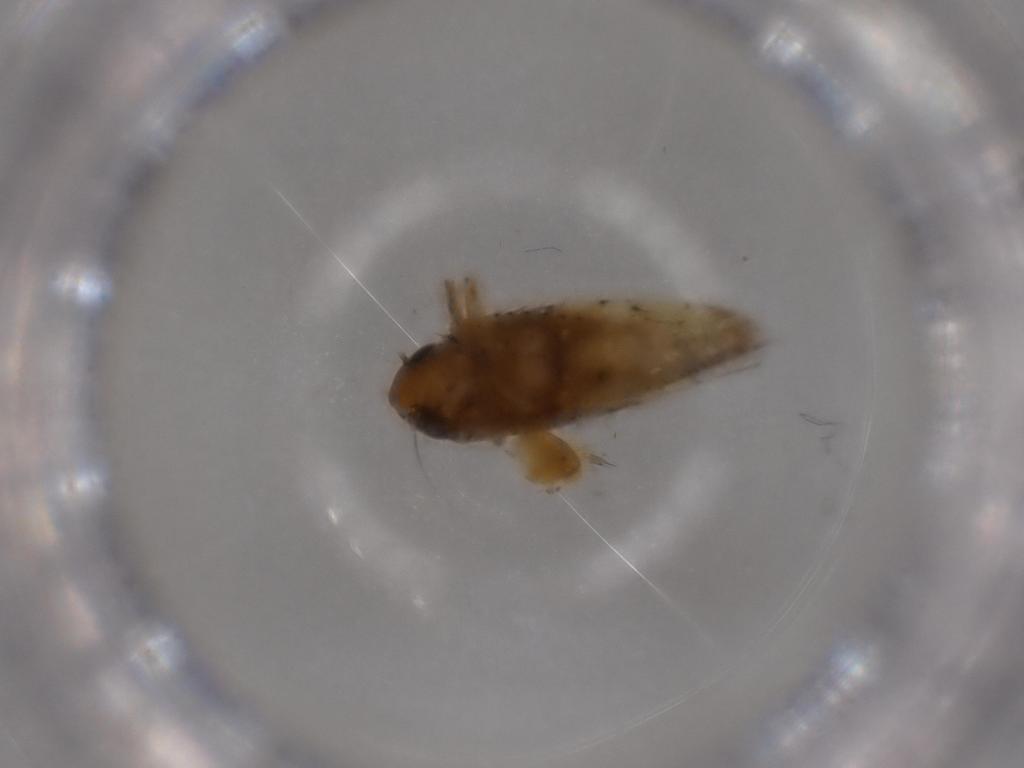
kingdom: Animalia
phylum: Arthropoda
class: Insecta
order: Hemiptera
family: Cicadellidae
